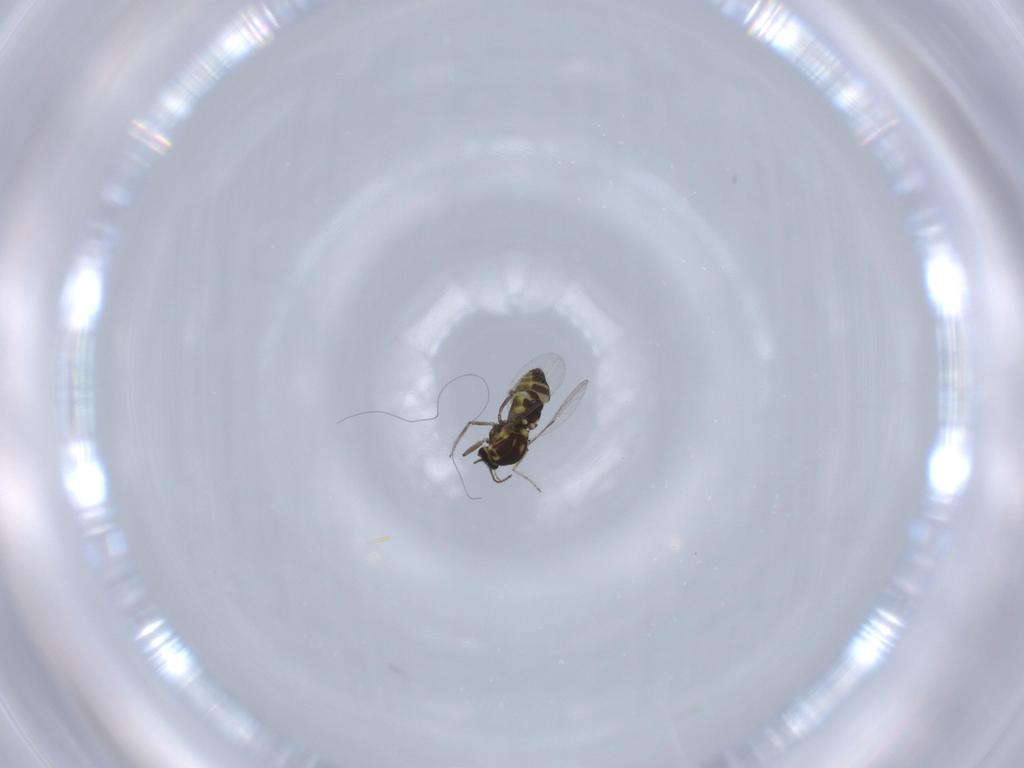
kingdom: Animalia
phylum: Arthropoda
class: Insecta
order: Diptera
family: Ceratopogonidae
